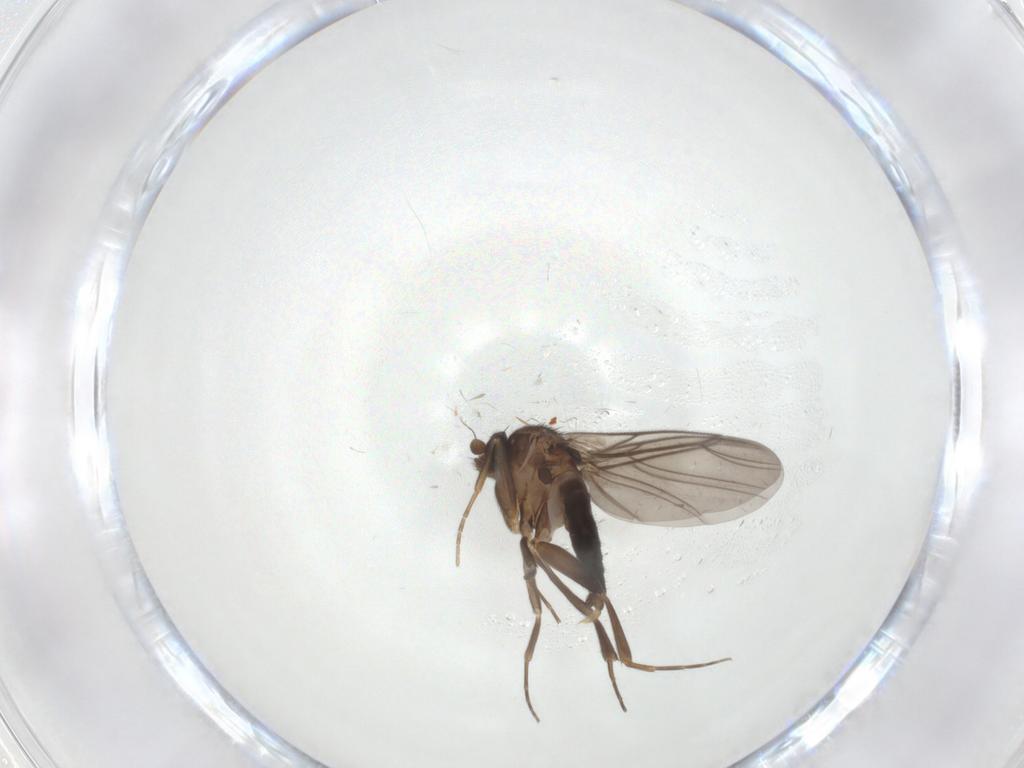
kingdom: Animalia
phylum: Arthropoda
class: Insecta
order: Diptera
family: Phoridae
